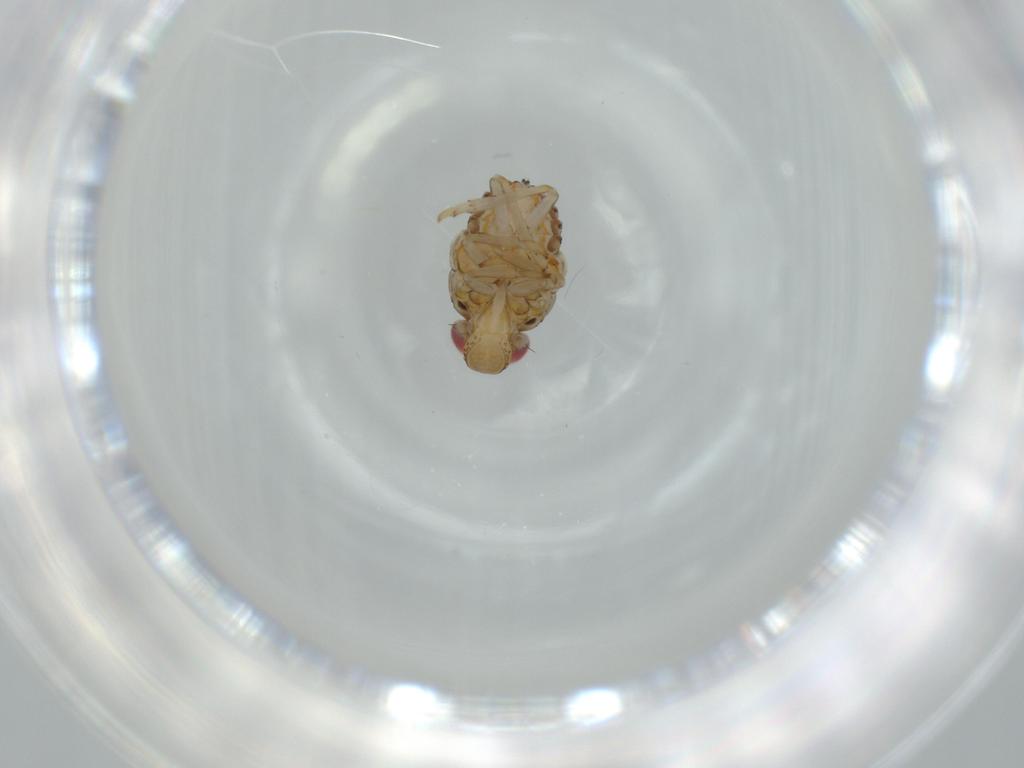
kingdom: Animalia
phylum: Arthropoda
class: Insecta
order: Hemiptera
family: Issidae
